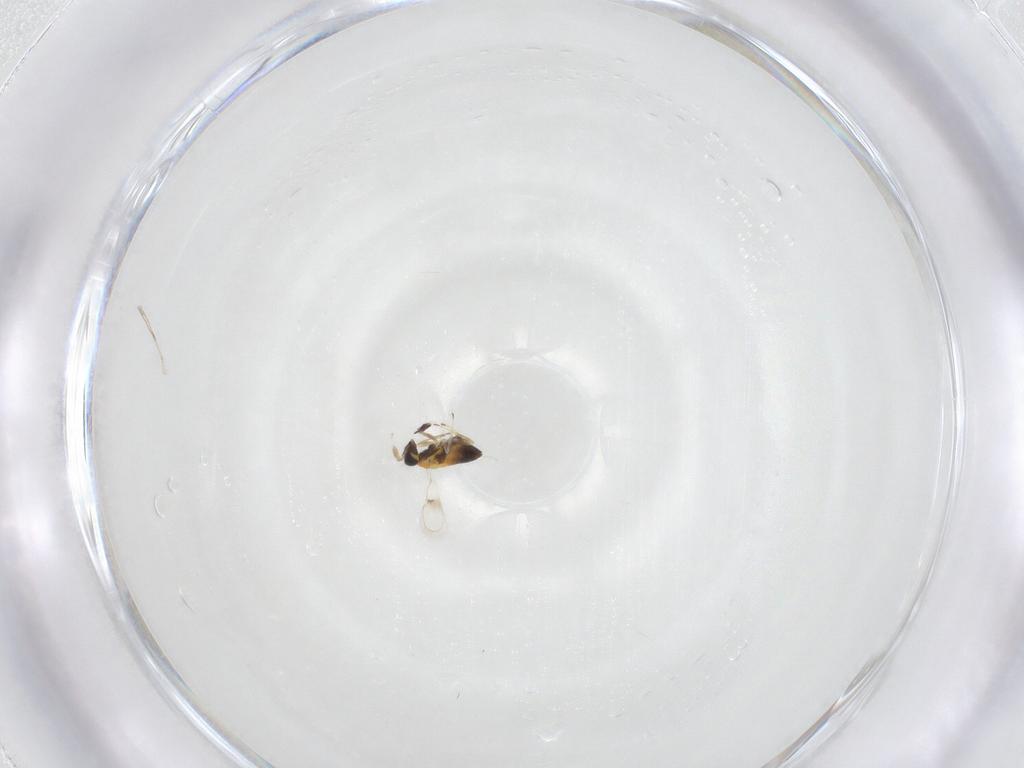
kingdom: Animalia
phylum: Arthropoda
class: Insecta
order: Hymenoptera
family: Trichogrammatidae
